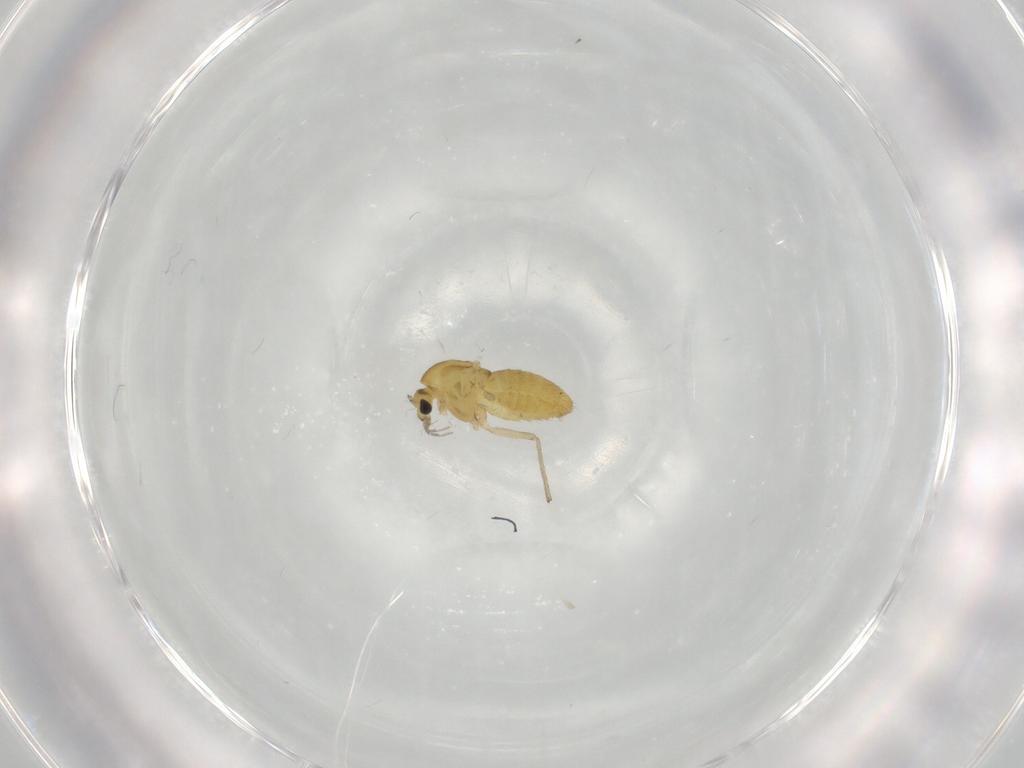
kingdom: Animalia
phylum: Arthropoda
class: Insecta
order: Diptera
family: Chironomidae
